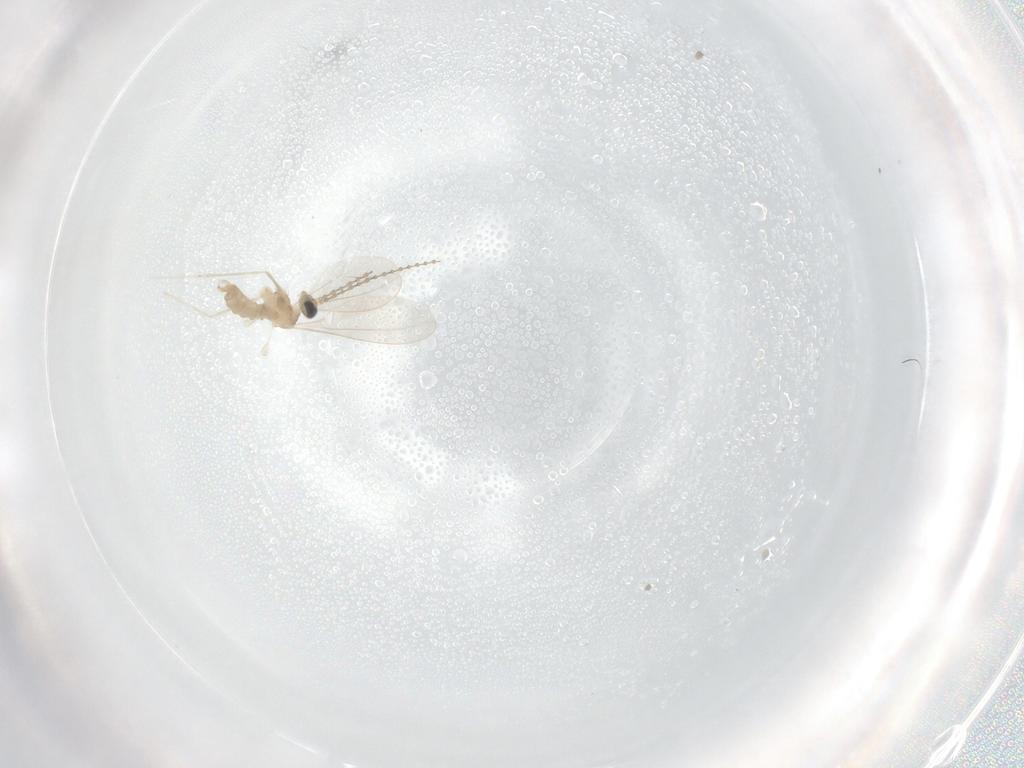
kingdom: Animalia
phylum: Arthropoda
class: Insecta
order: Diptera
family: Cecidomyiidae
